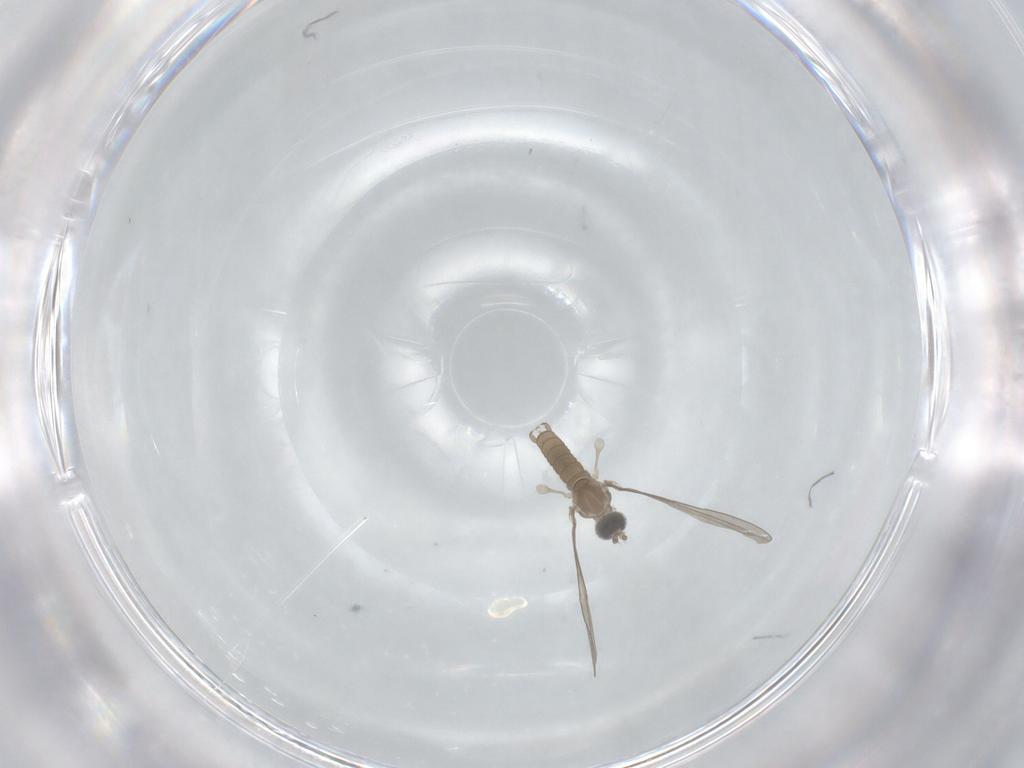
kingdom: Animalia
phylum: Arthropoda
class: Insecta
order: Diptera
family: Cecidomyiidae
